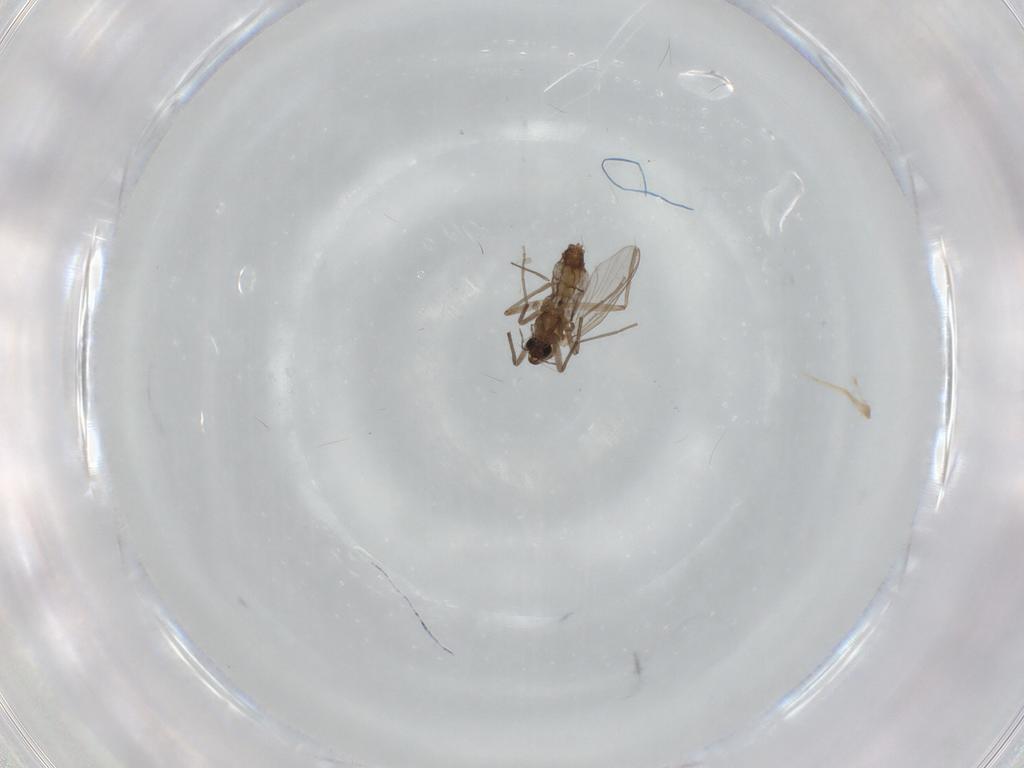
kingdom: Animalia
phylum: Arthropoda
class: Insecta
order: Diptera
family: Chironomidae
